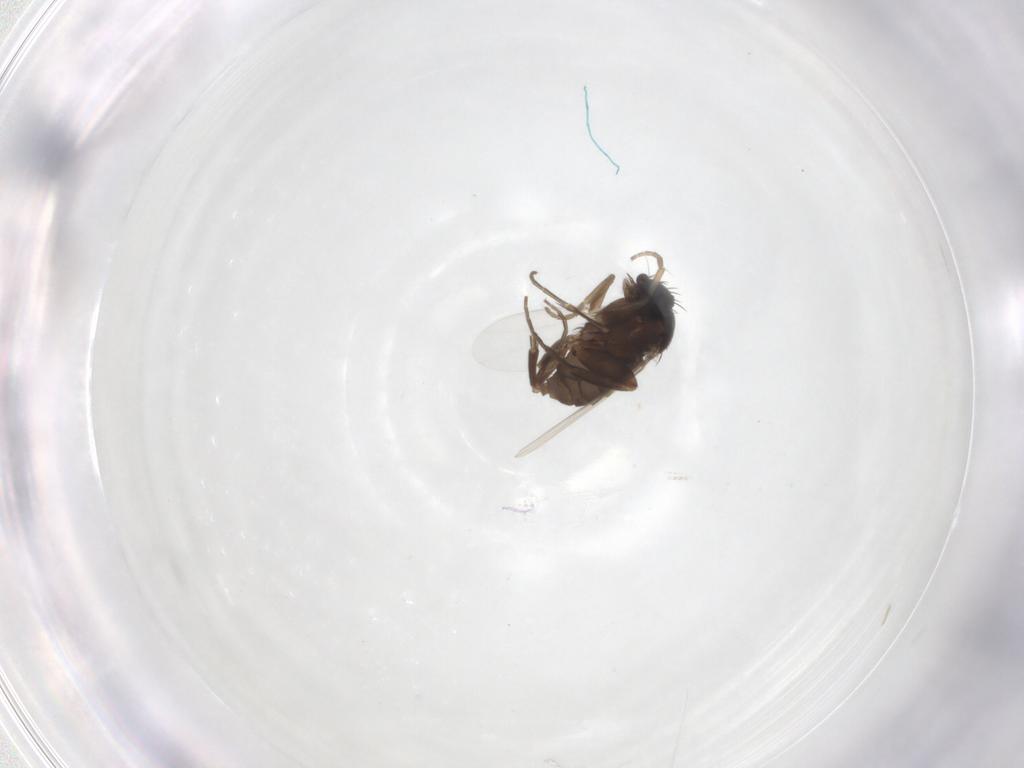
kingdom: Animalia
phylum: Arthropoda
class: Insecta
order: Diptera
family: Phoridae
